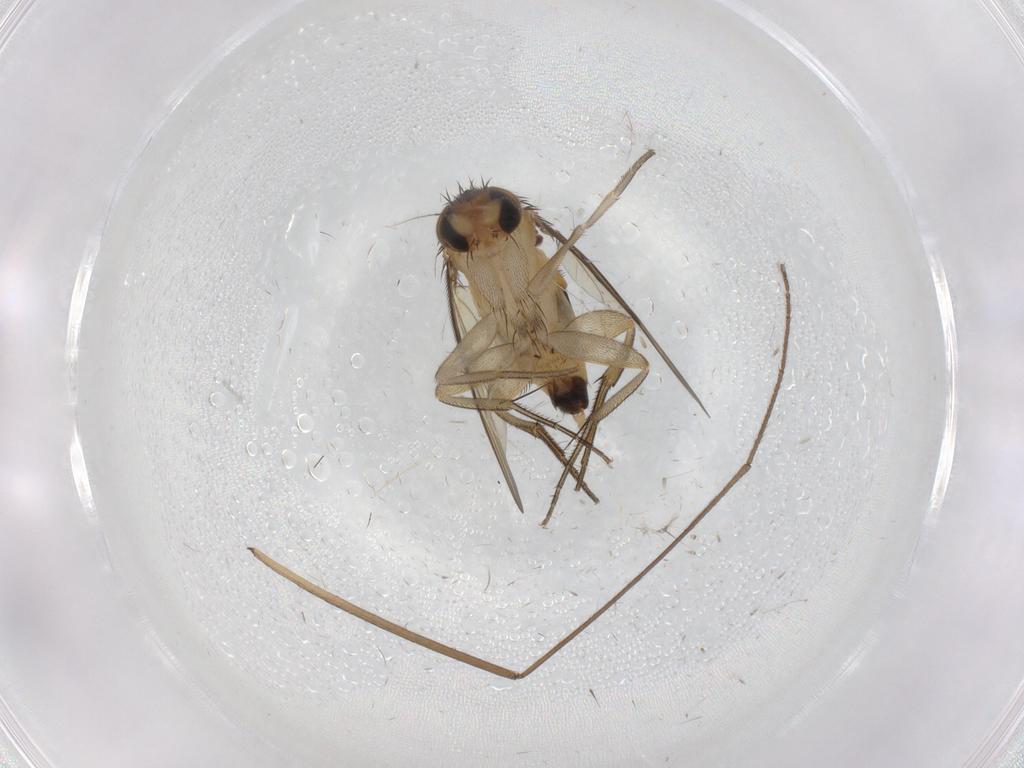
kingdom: Animalia
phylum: Arthropoda
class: Insecta
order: Diptera
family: Phoridae
